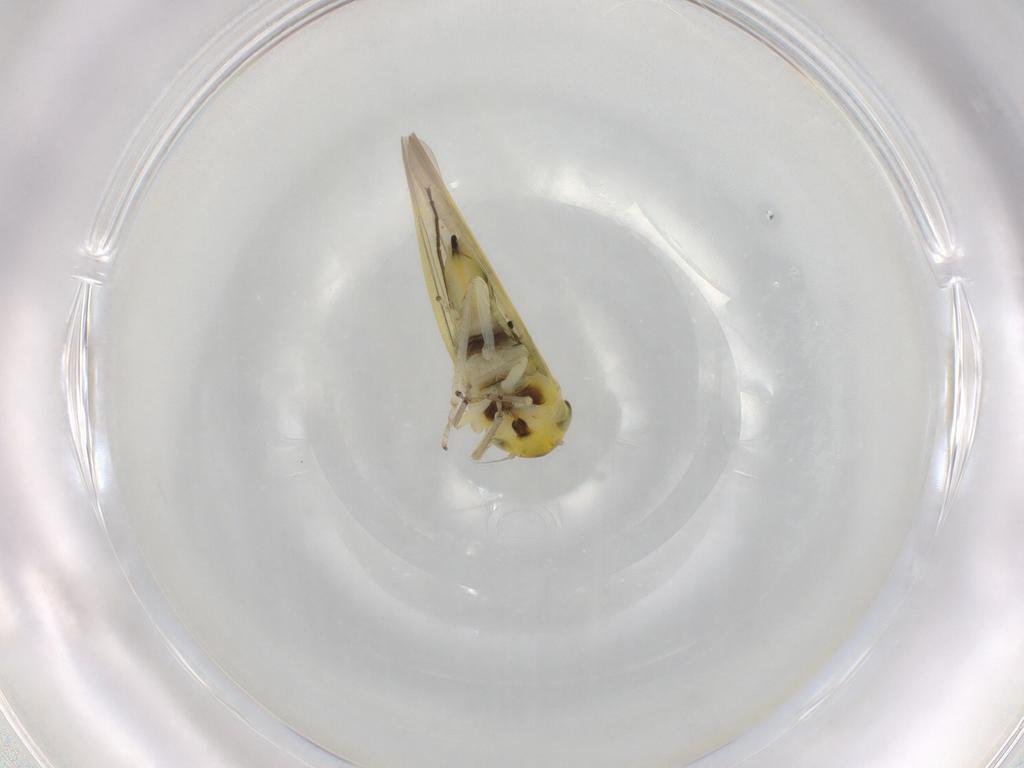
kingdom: Animalia
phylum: Arthropoda
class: Insecta
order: Hemiptera
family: Cicadellidae
